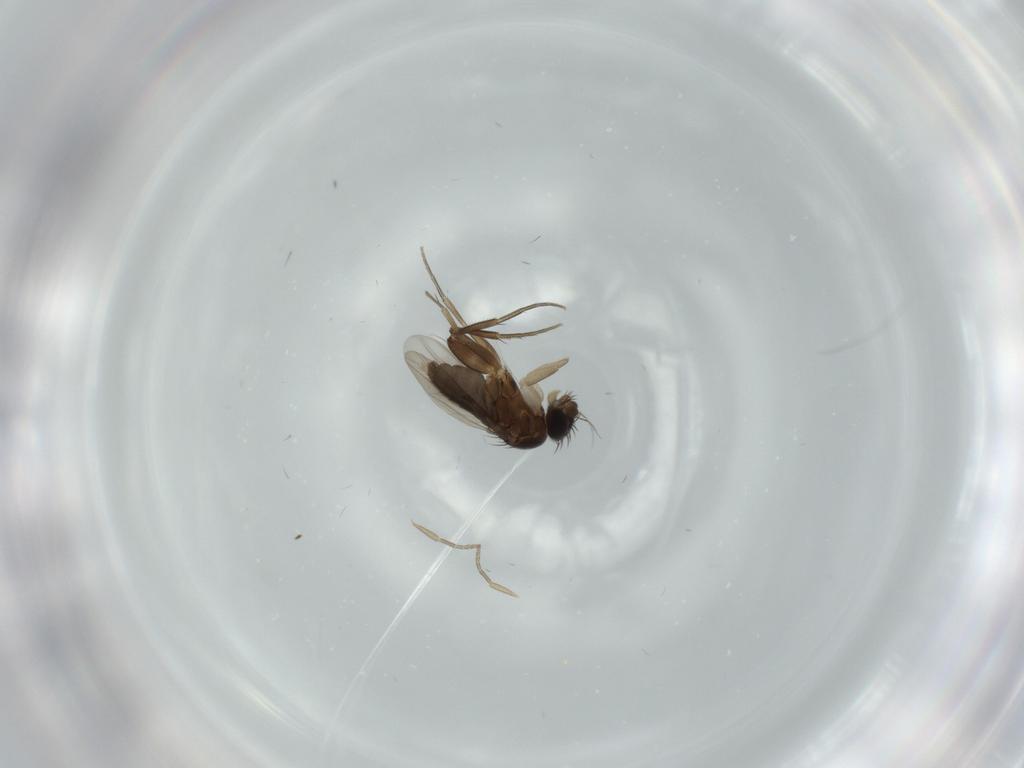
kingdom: Animalia
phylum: Arthropoda
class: Insecta
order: Diptera
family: Phoridae
